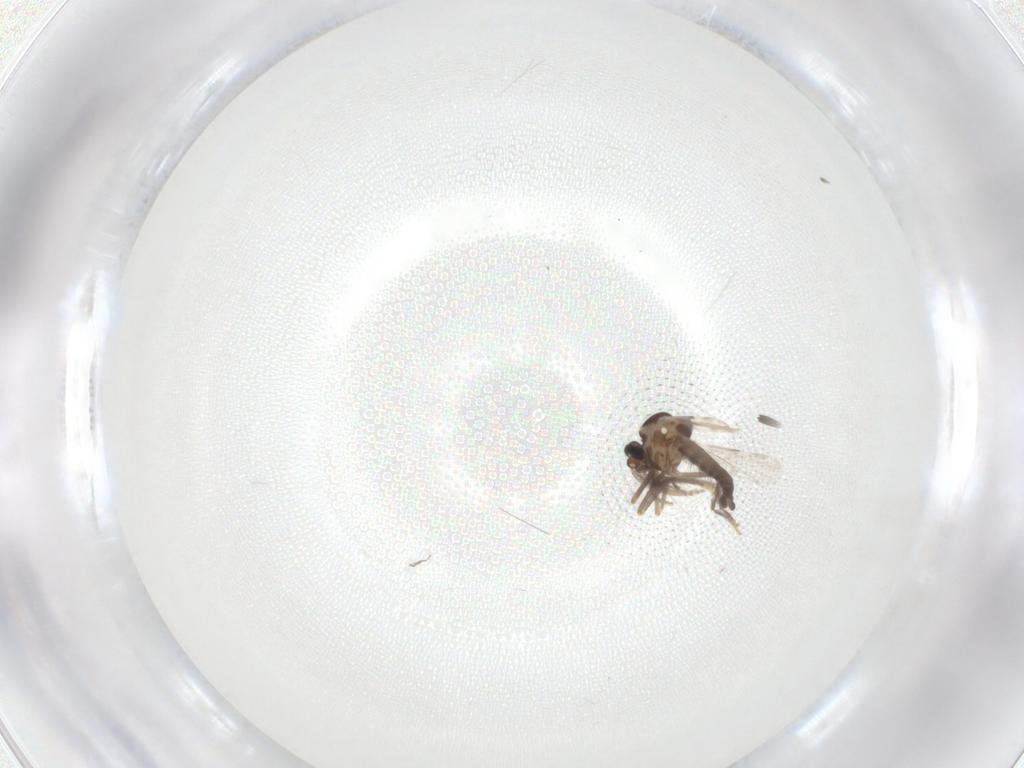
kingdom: Animalia
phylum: Arthropoda
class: Insecta
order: Diptera
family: Ceratopogonidae
